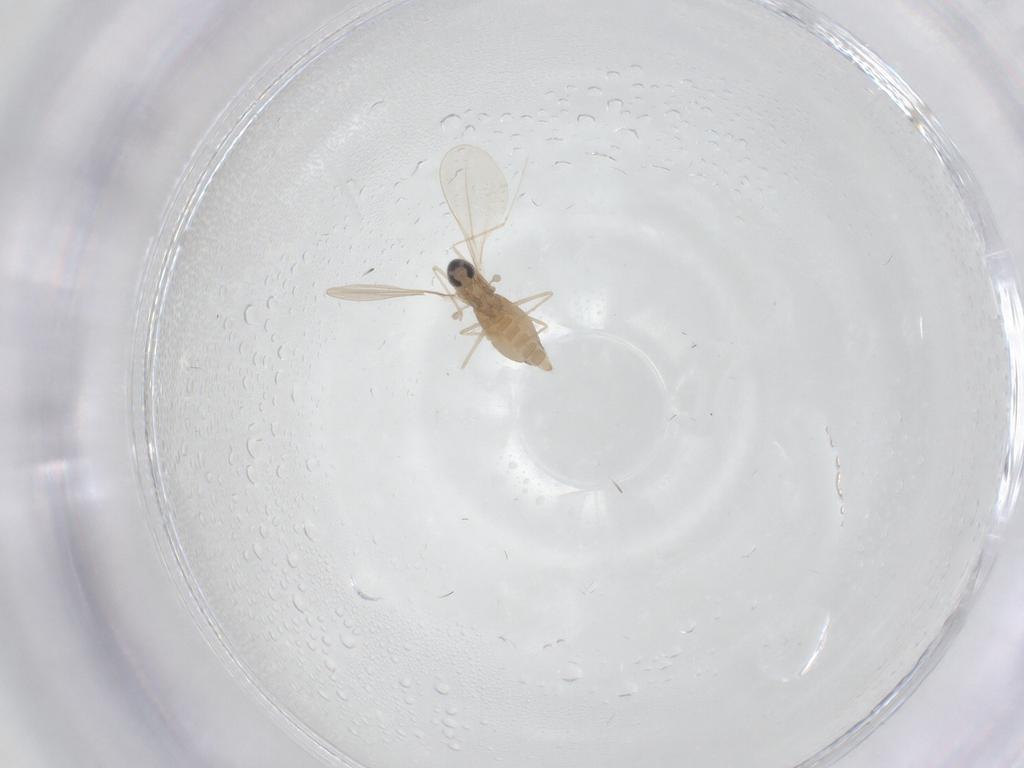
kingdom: Animalia
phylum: Arthropoda
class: Insecta
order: Diptera
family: Cecidomyiidae
